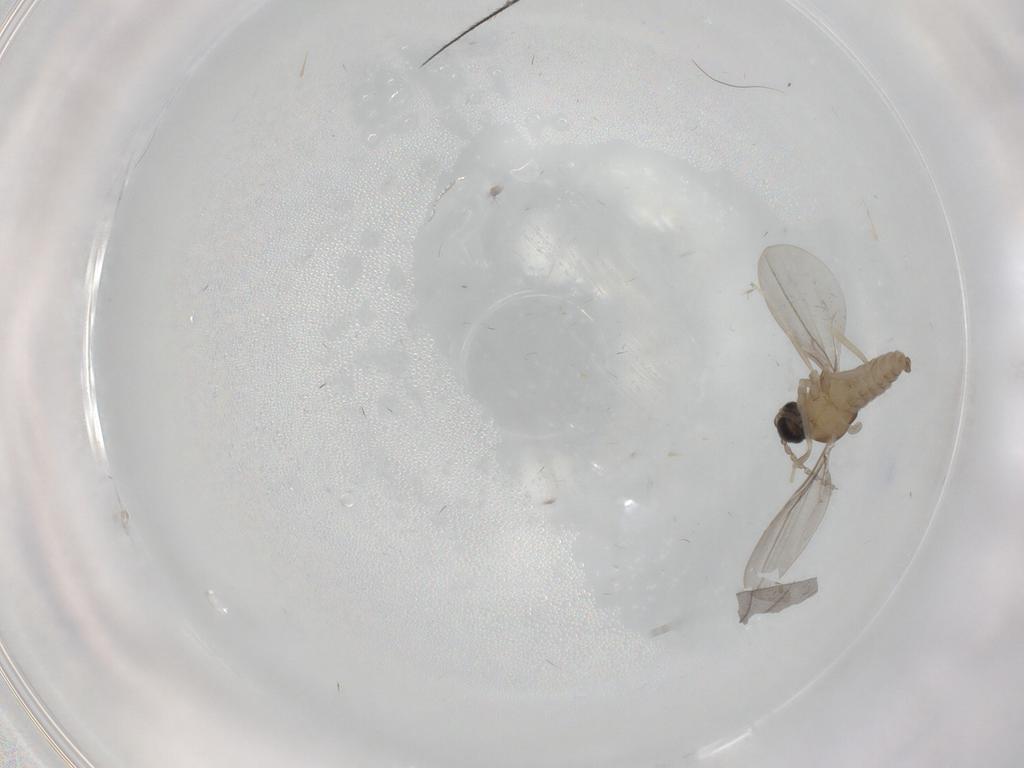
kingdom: Animalia
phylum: Arthropoda
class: Insecta
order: Diptera
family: Cecidomyiidae
